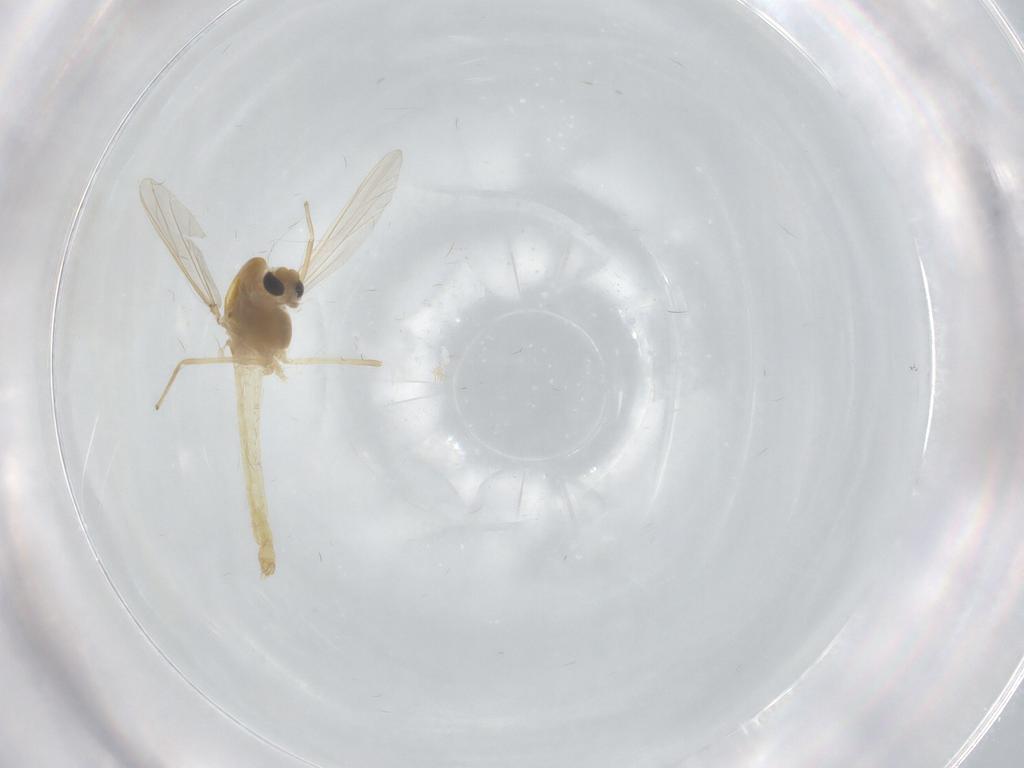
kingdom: Animalia
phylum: Arthropoda
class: Insecta
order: Diptera
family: Chironomidae
